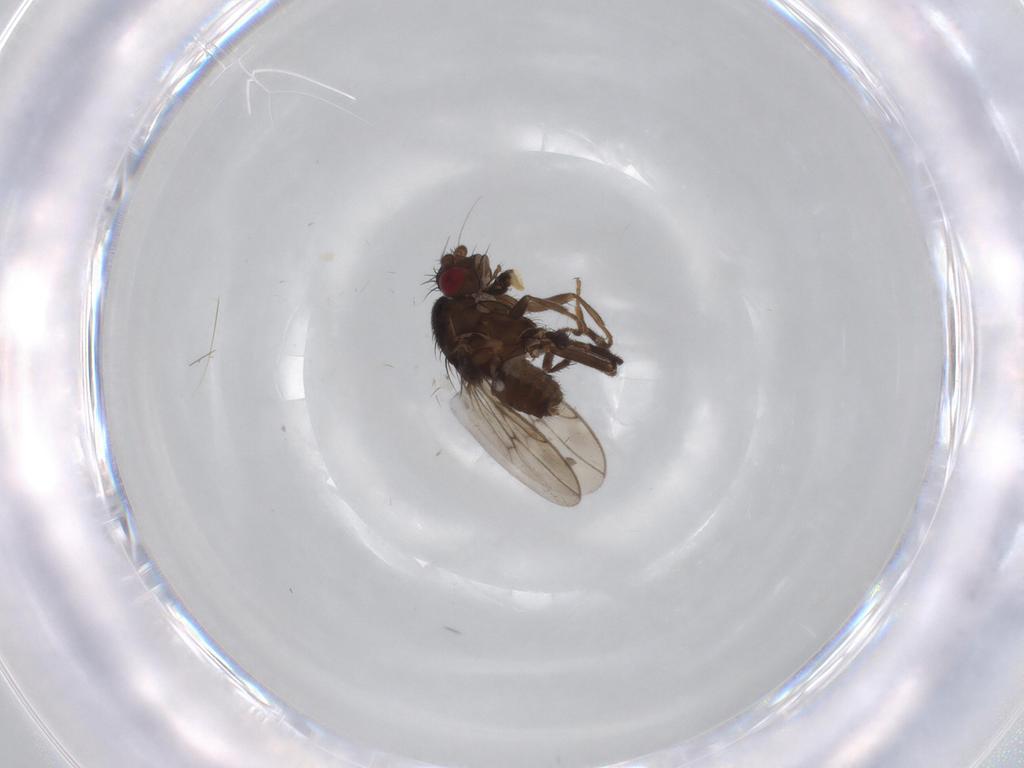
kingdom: Animalia
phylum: Arthropoda
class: Insecta
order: Diptera
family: Sphaeroceridae
